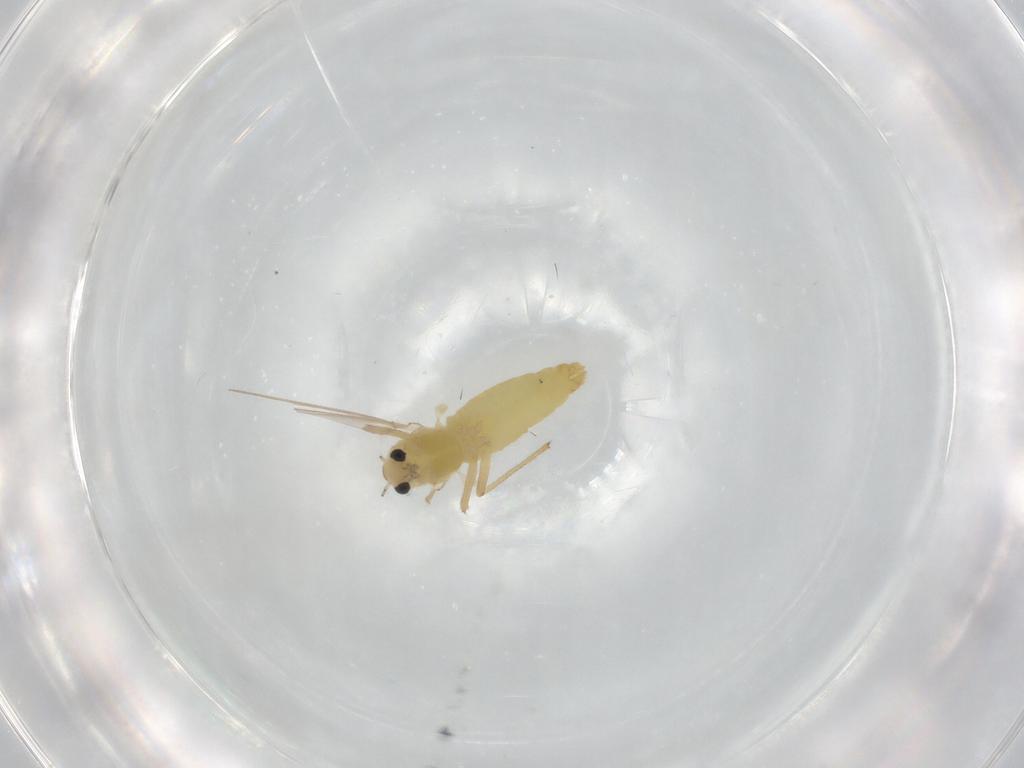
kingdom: Animalia
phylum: Arthropoda
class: Insecta
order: Diptera
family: Chironomidae
